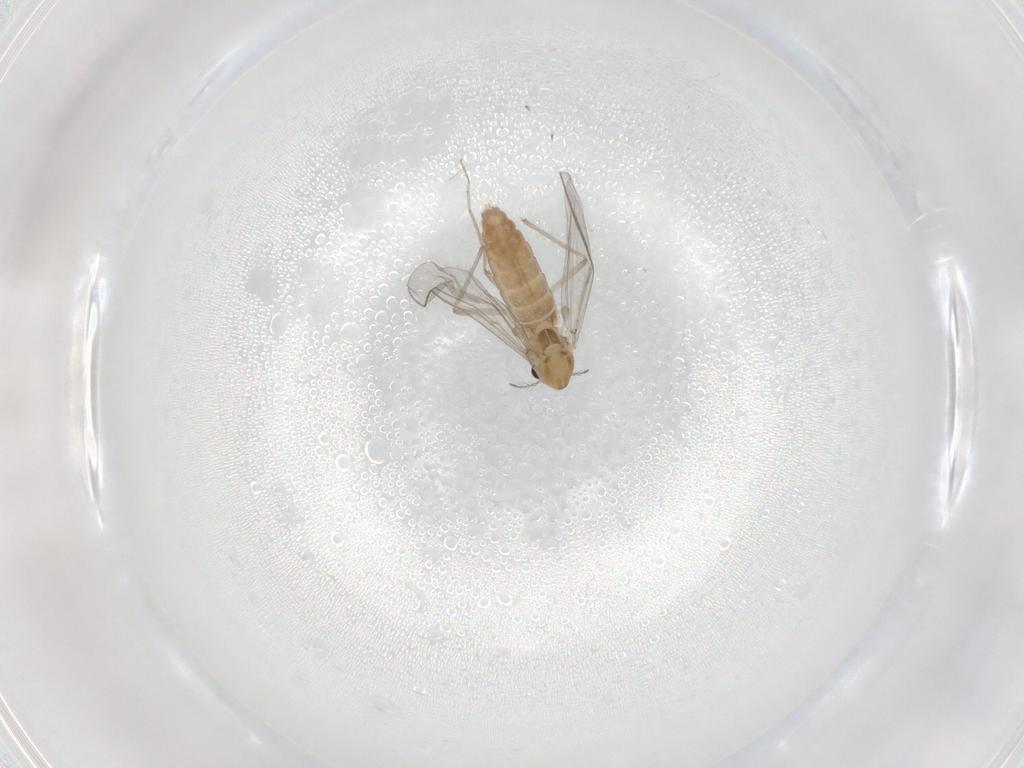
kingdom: Animalia
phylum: Arthropoda
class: Insecta
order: Diptera
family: Chironomidae
